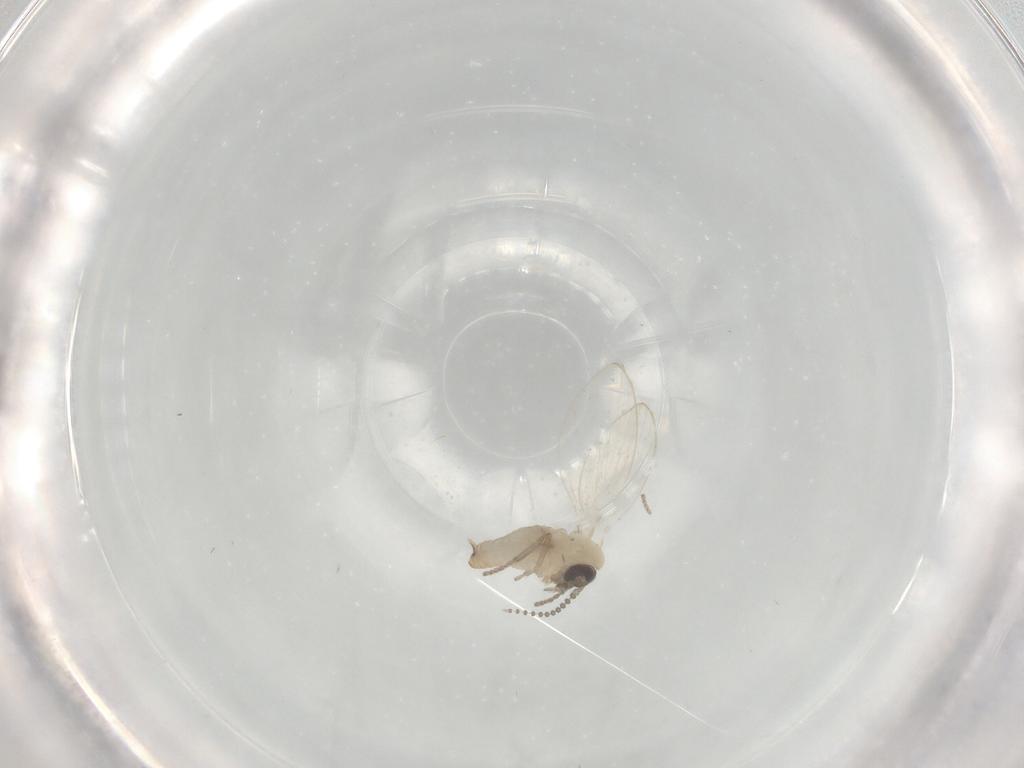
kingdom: Animalia
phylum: Arthropoda
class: Insecta
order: Diptera
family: Psychodidae
